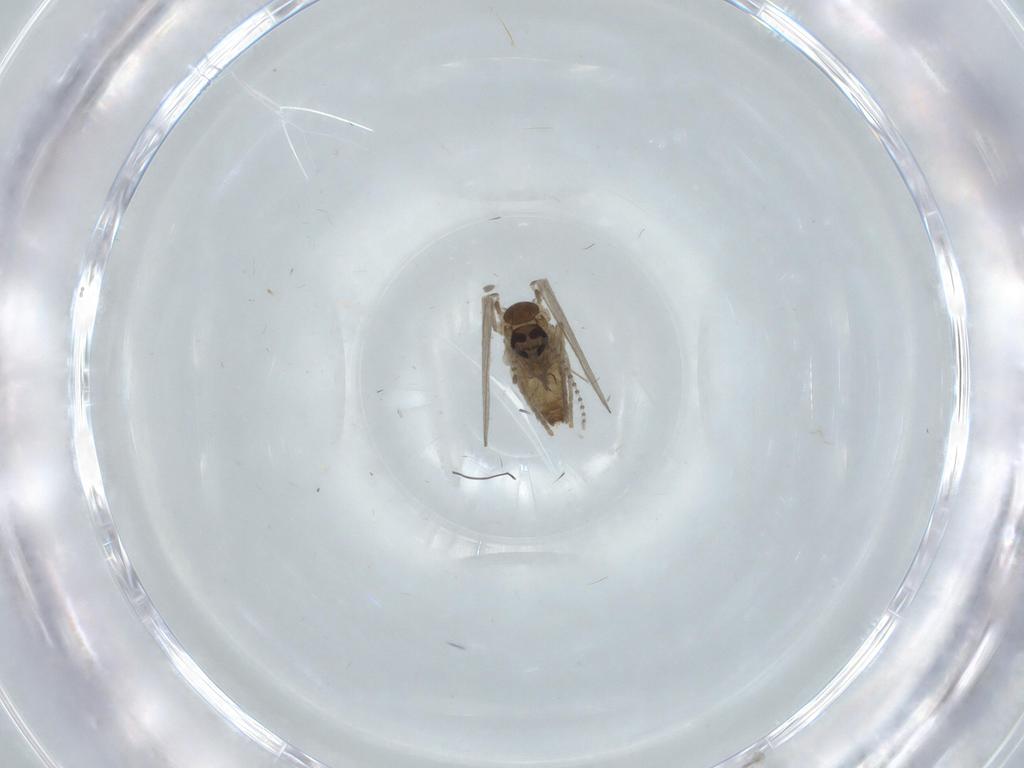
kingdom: Animalia
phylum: Arthropoda
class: Insecta
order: Diptera
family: Psychodidae
